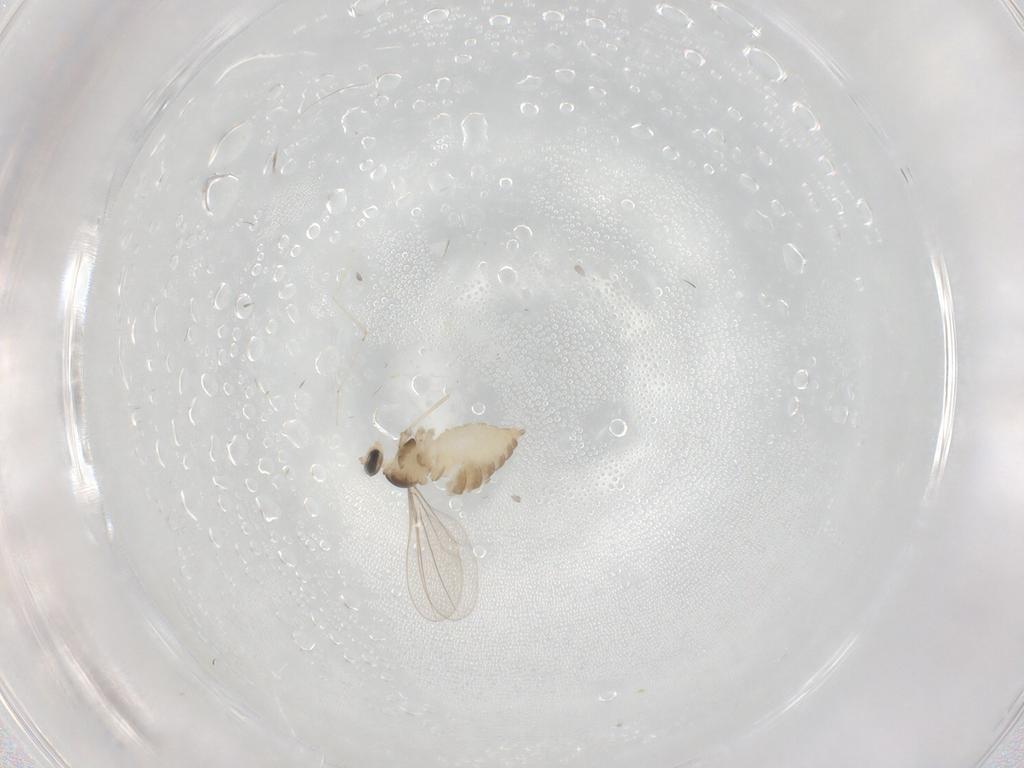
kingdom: Animalia
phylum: Arthropoda
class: Insecta
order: Diptera
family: Cecidomyiidae
